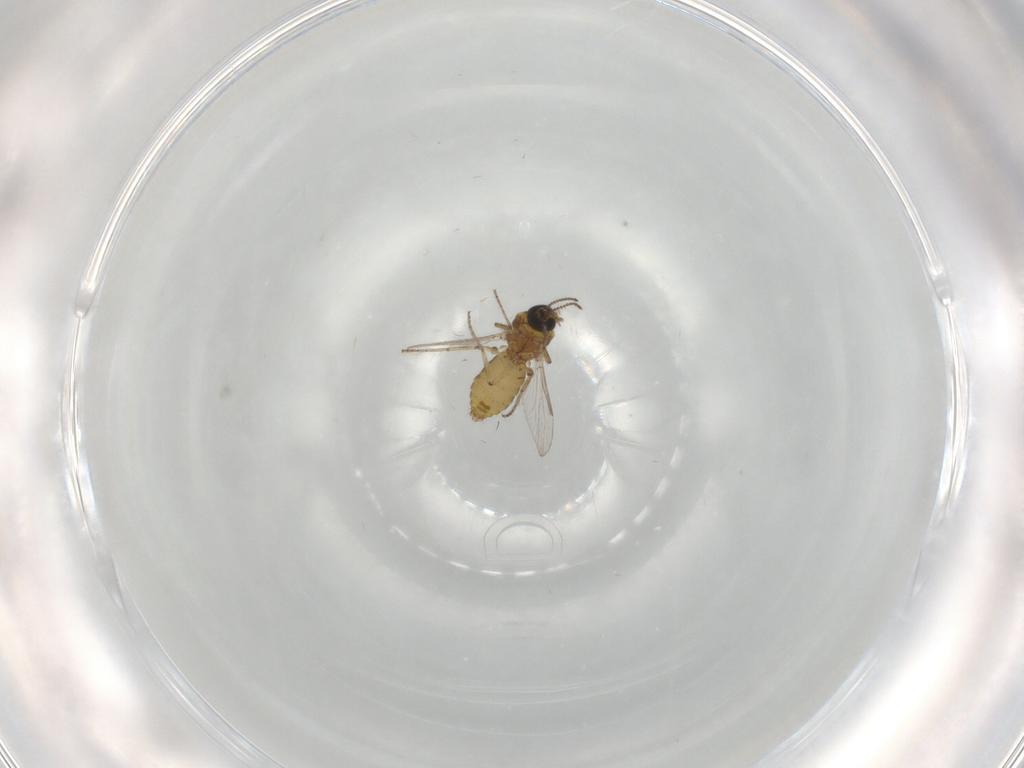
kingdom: Animalia
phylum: Arthropoda
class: Insecta
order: Diptera
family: Ceratopogonidae
